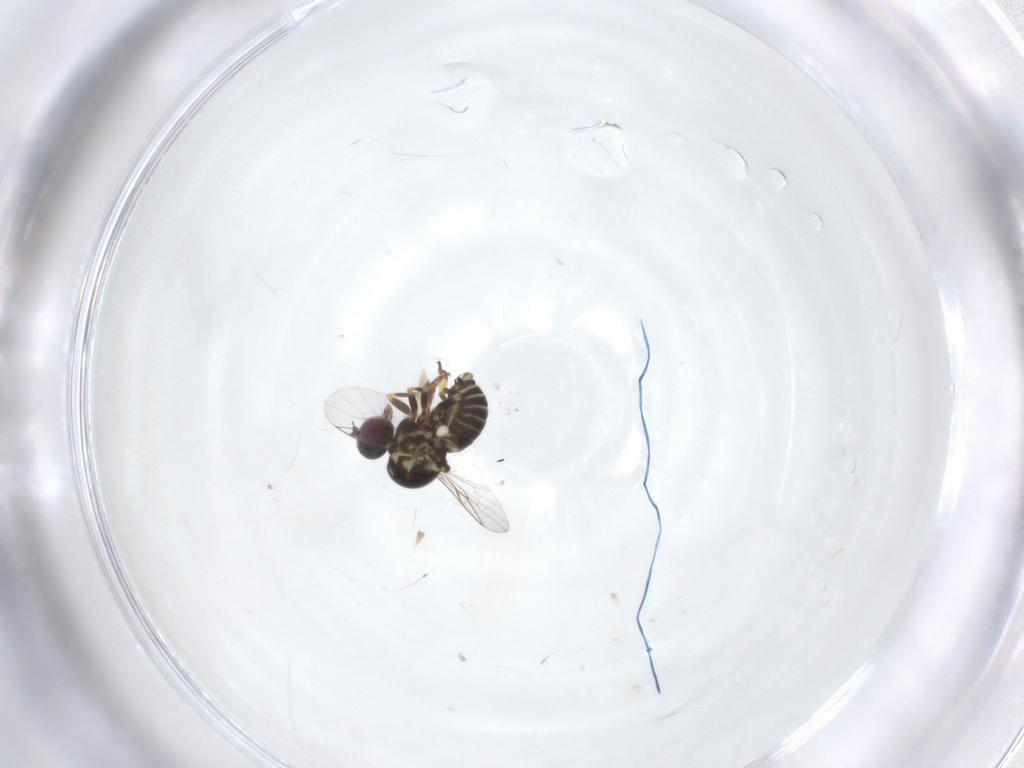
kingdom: Animalia
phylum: Arthropoda
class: Insecta
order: Diptera
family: Mythicomyiidae
